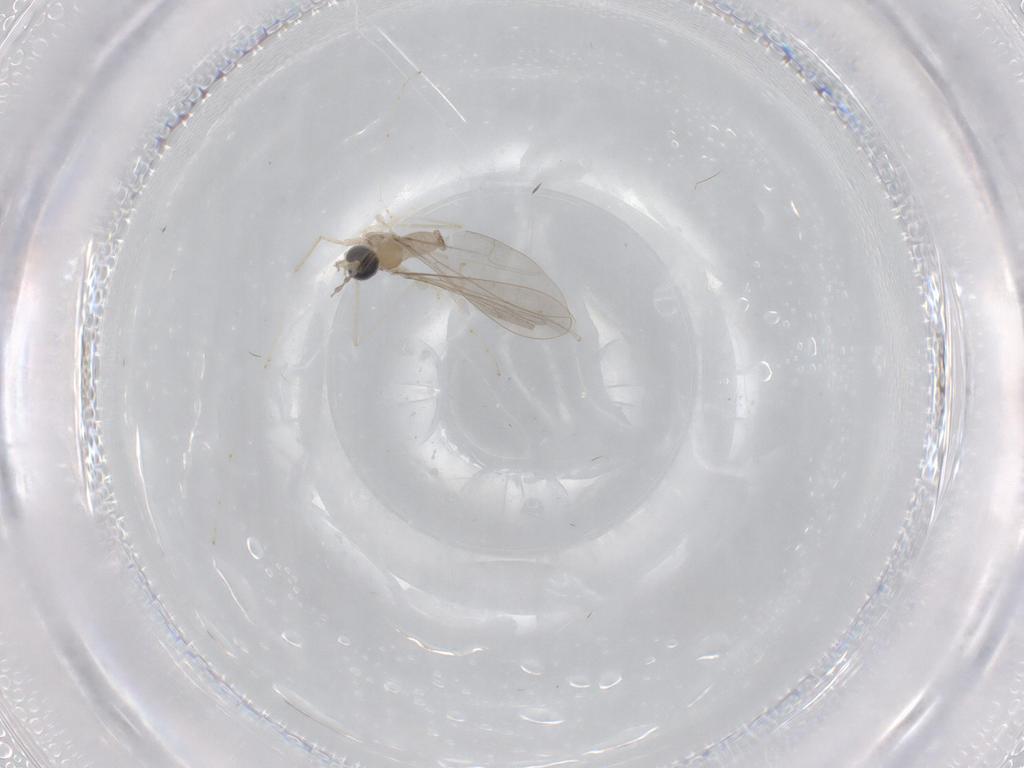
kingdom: Animalia
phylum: Arthropoda
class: Insecta
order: Diptera
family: Cecidomyiidae
